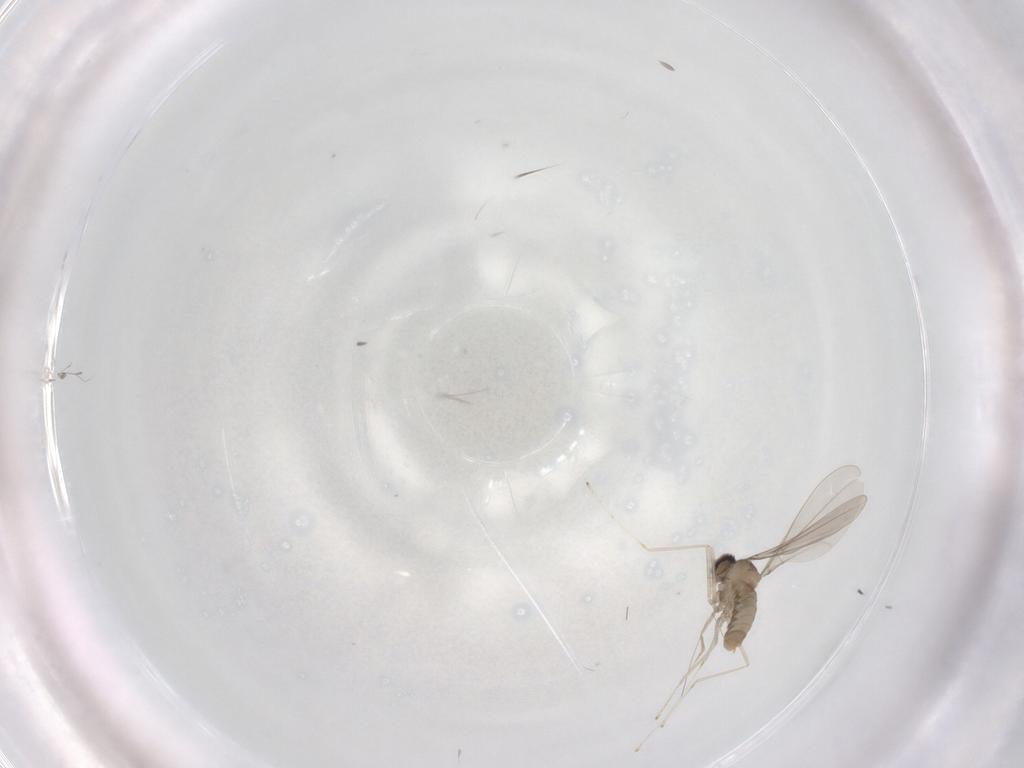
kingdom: Animalia
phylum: Arthropoda
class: Insecta
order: Diptera
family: Cecidomyiidae
